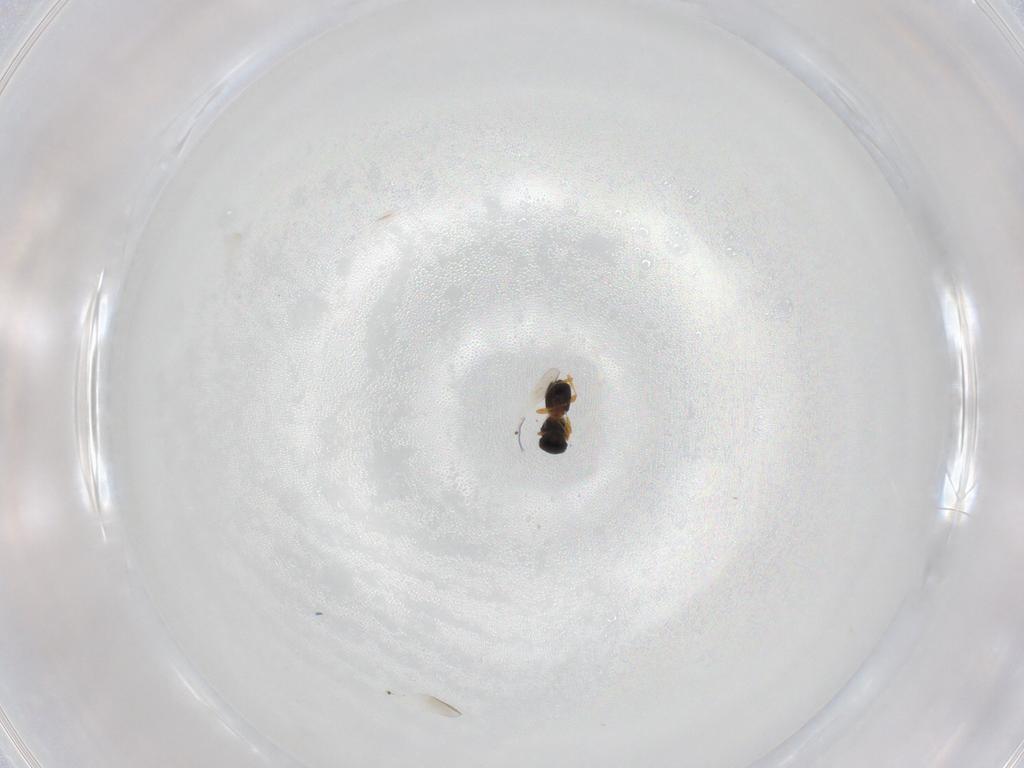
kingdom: Animalia
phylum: Arthropoda
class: Insecta
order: Hymenoptera
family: Platygastridae
